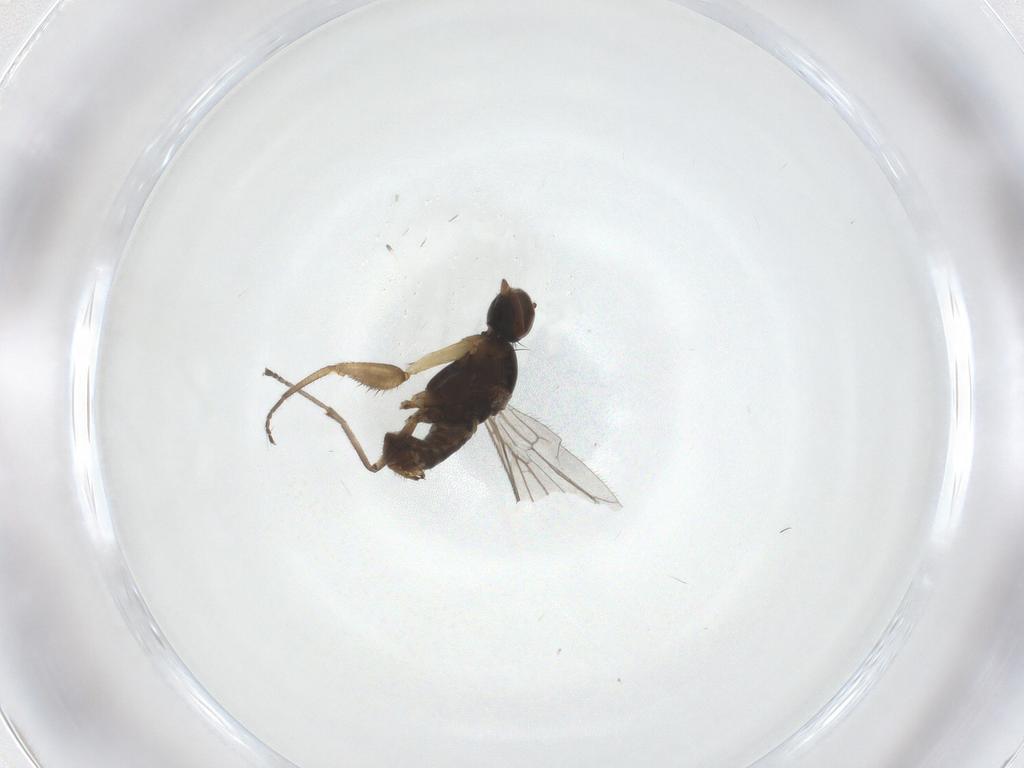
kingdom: Animalia
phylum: Arthropoda
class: Insecta
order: Diptera
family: Empididae
